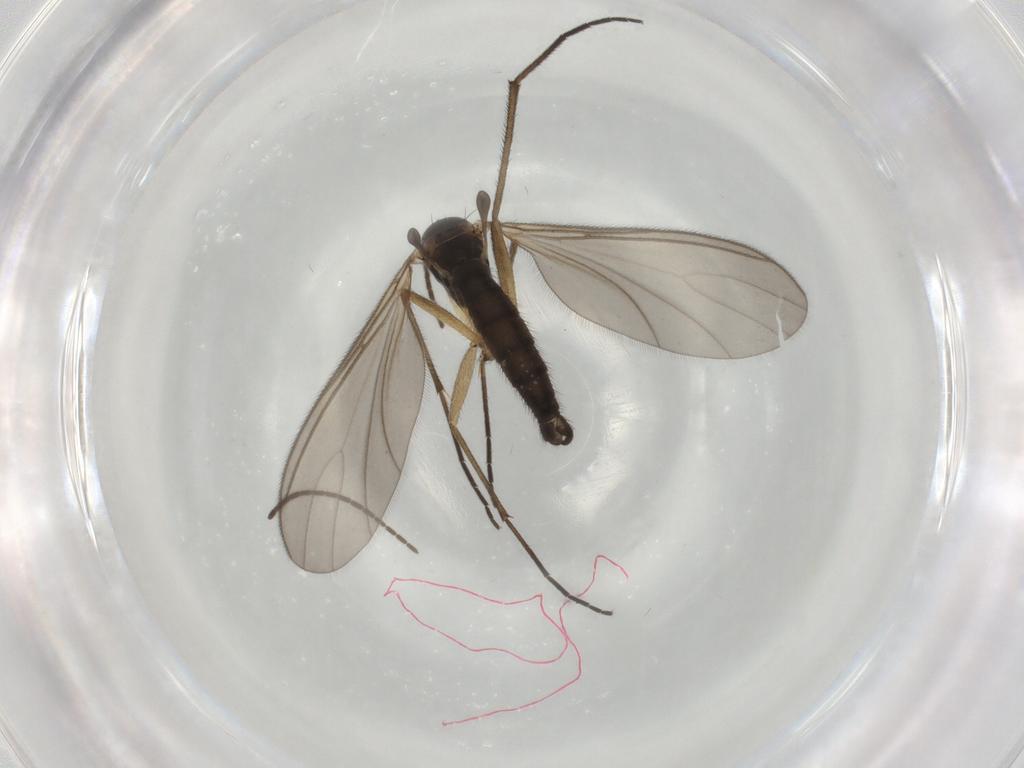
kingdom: Animalia
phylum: Arthropoda
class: Insecta
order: Diptera
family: Sciaridae
